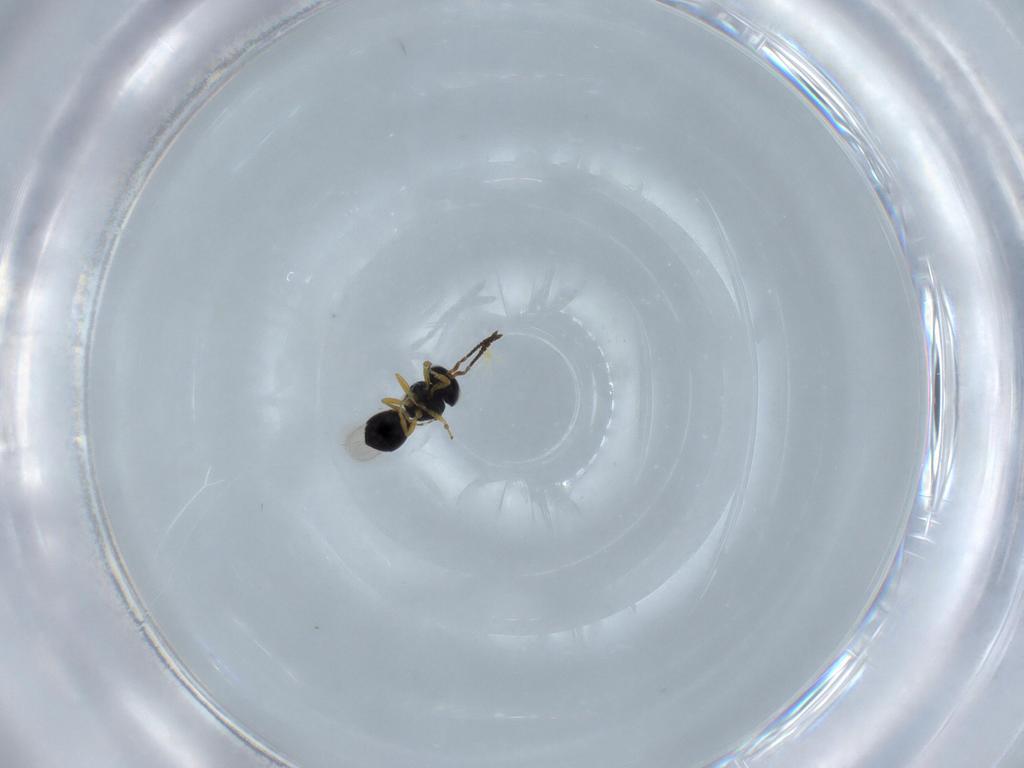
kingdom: Animalia
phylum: Arthropoda
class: Insecta
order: Hymenoptera
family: Scelionidae
